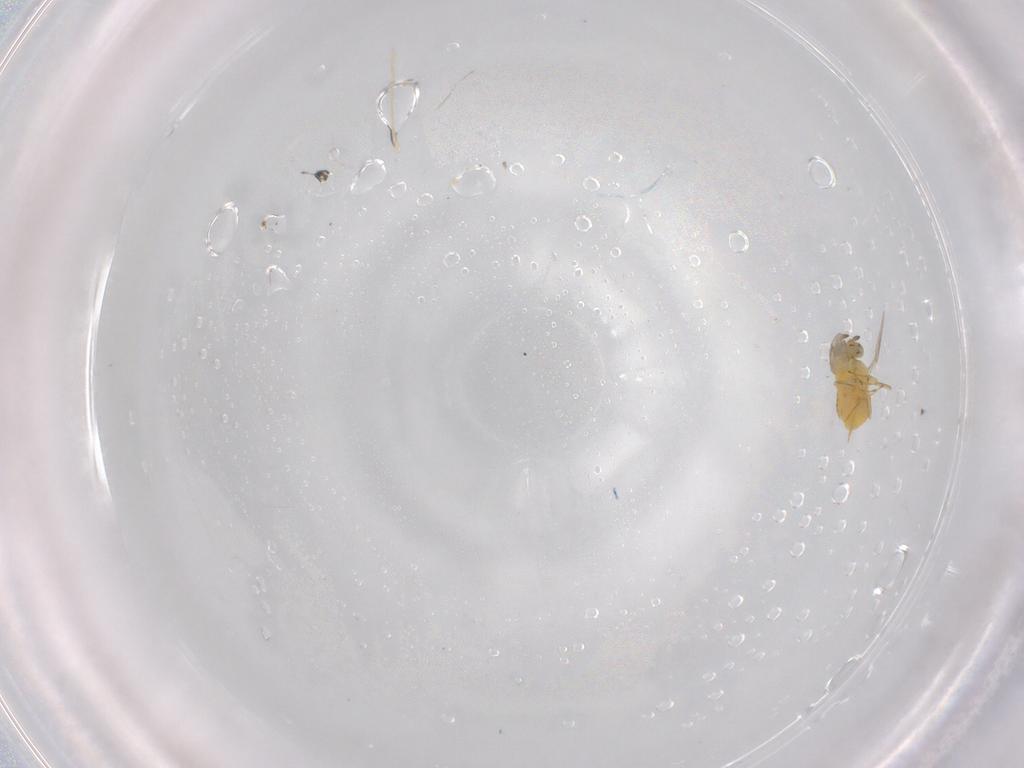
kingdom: Animalia
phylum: Arthropoda
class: Insecta
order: Hymenoptera
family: Aphelinidae
